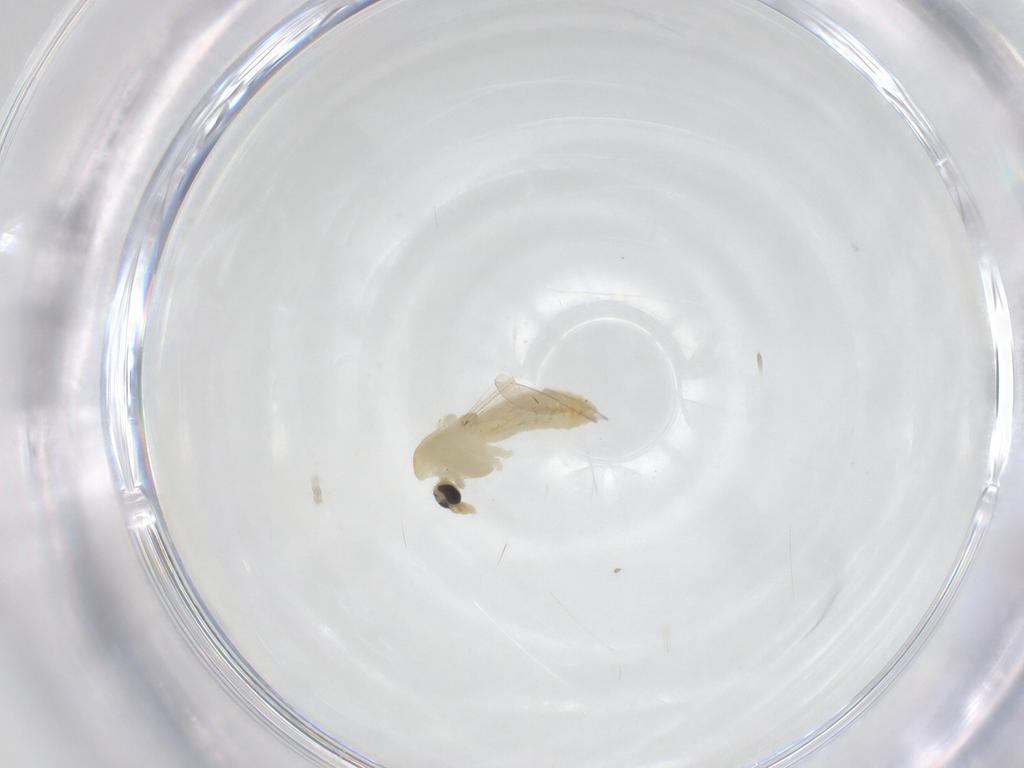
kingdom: Animalia
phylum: Arthropoda
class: Insecta
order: Diptera
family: Chironomidae
